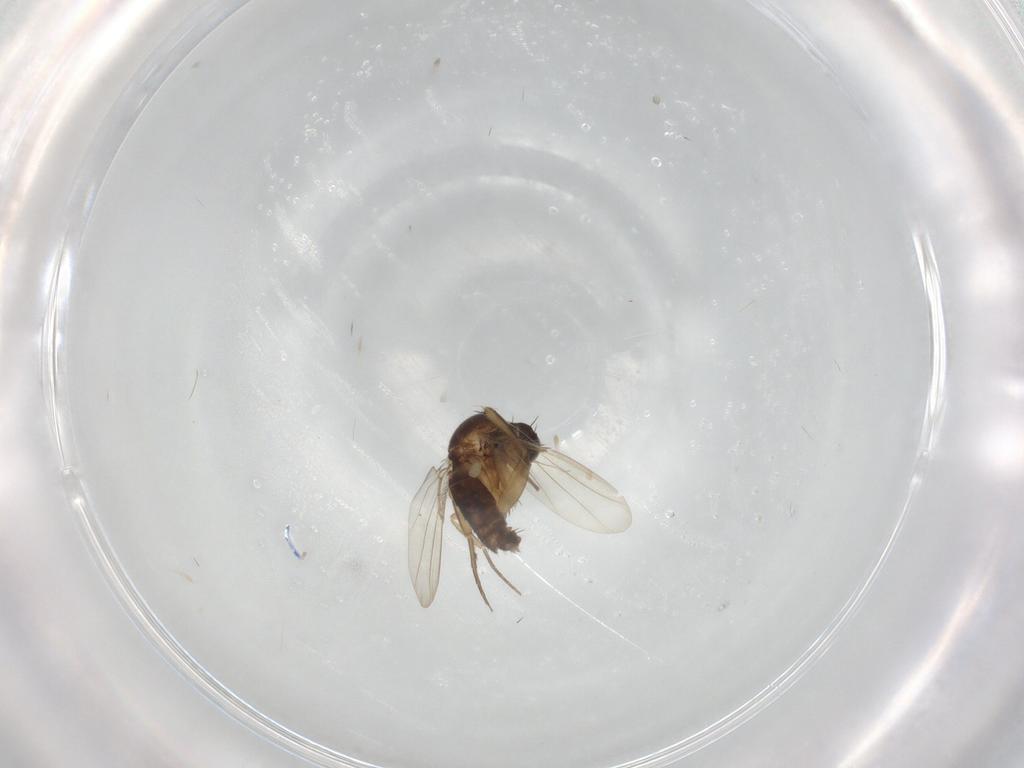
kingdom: Animalia
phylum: Arthropoda
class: Insecta
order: Diptera
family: Phoridae
